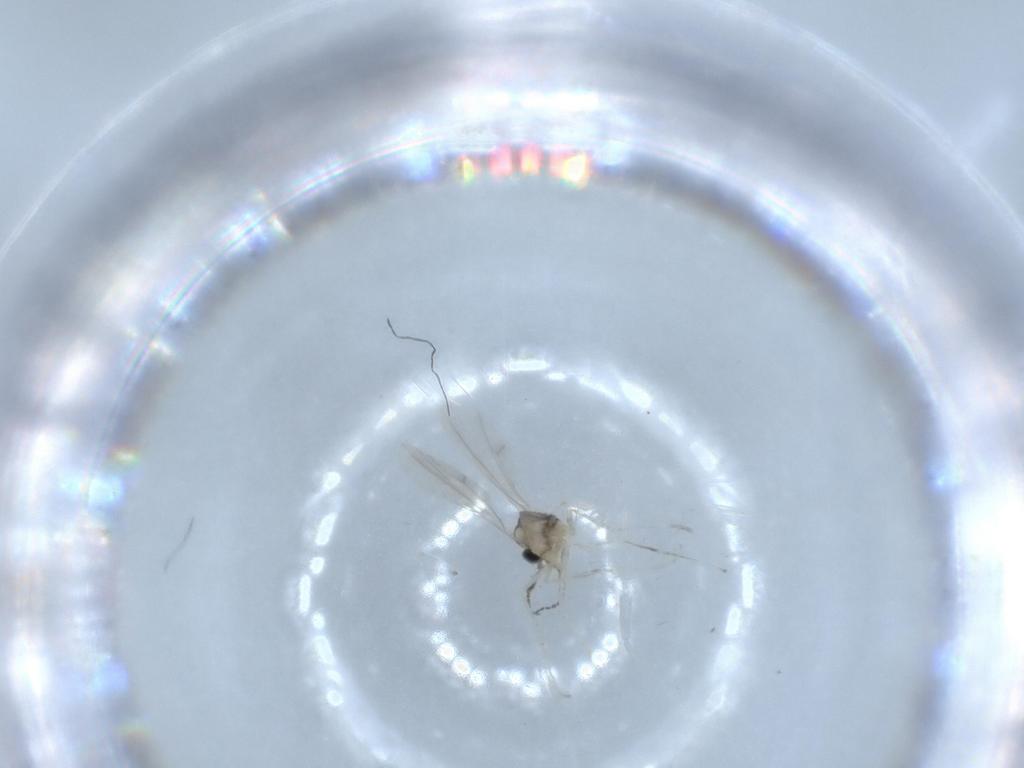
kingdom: Animalia
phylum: Arthropoda
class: Insecta
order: Diptera
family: Cecidomyiidae
